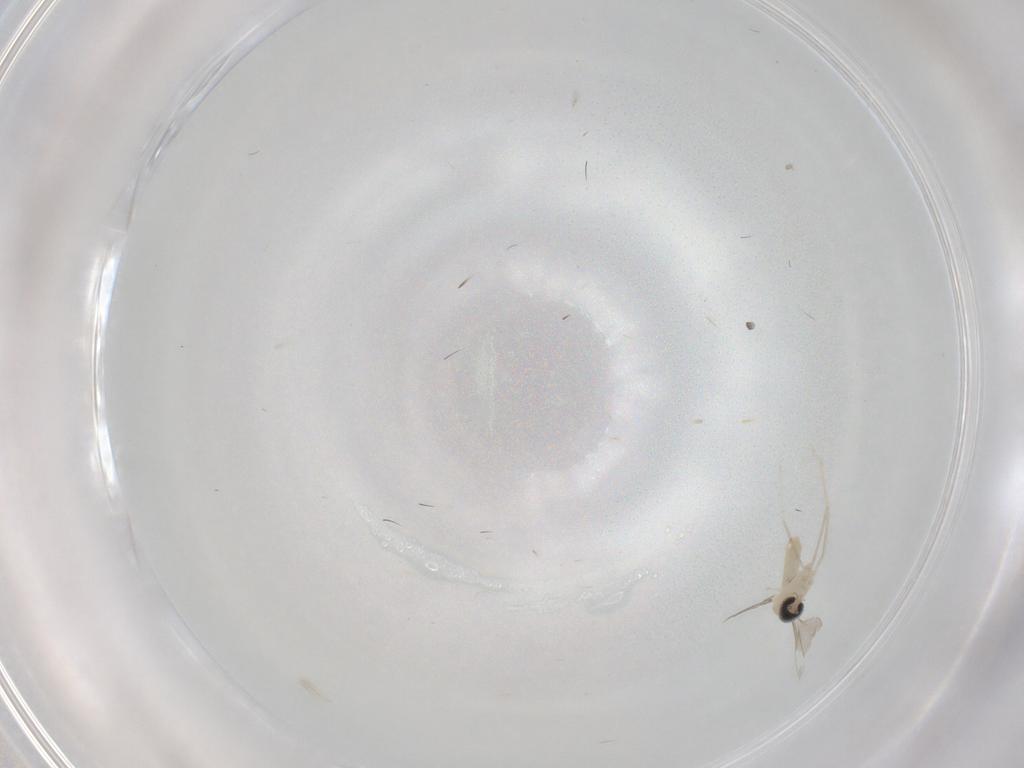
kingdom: Animalia
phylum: Arthropoda
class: Insecta
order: Diptera
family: Cecidomyiidae
